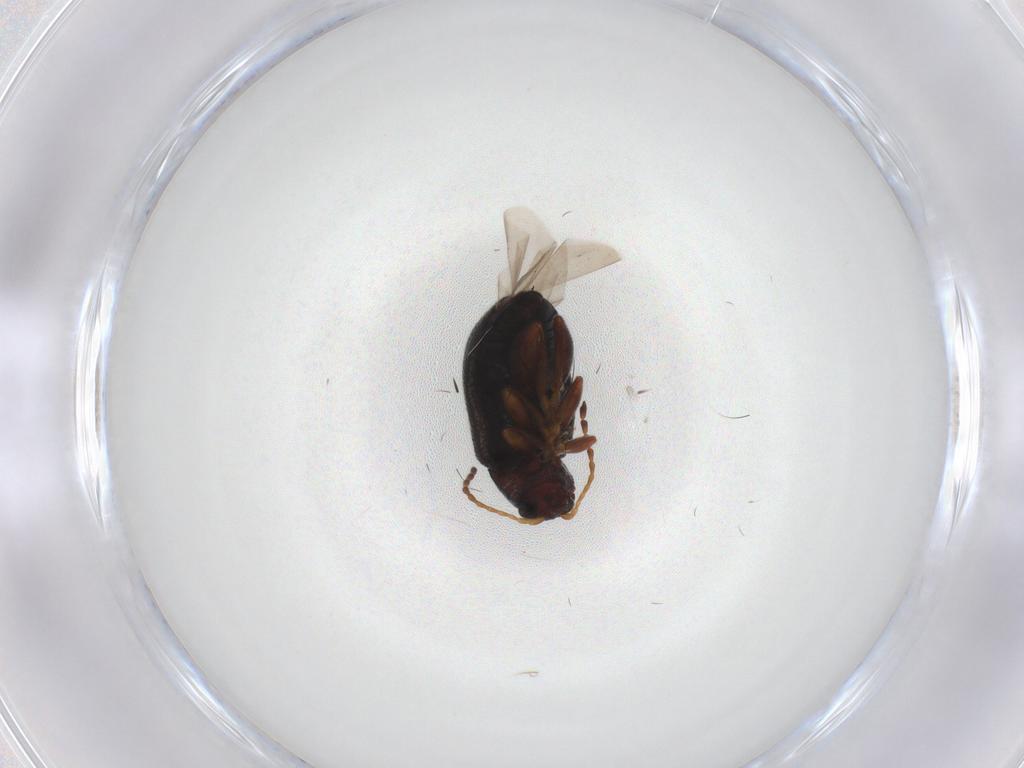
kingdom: Animalia
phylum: Arthropoda
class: Insecta
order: Coleoptera
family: Chrysomelidae
